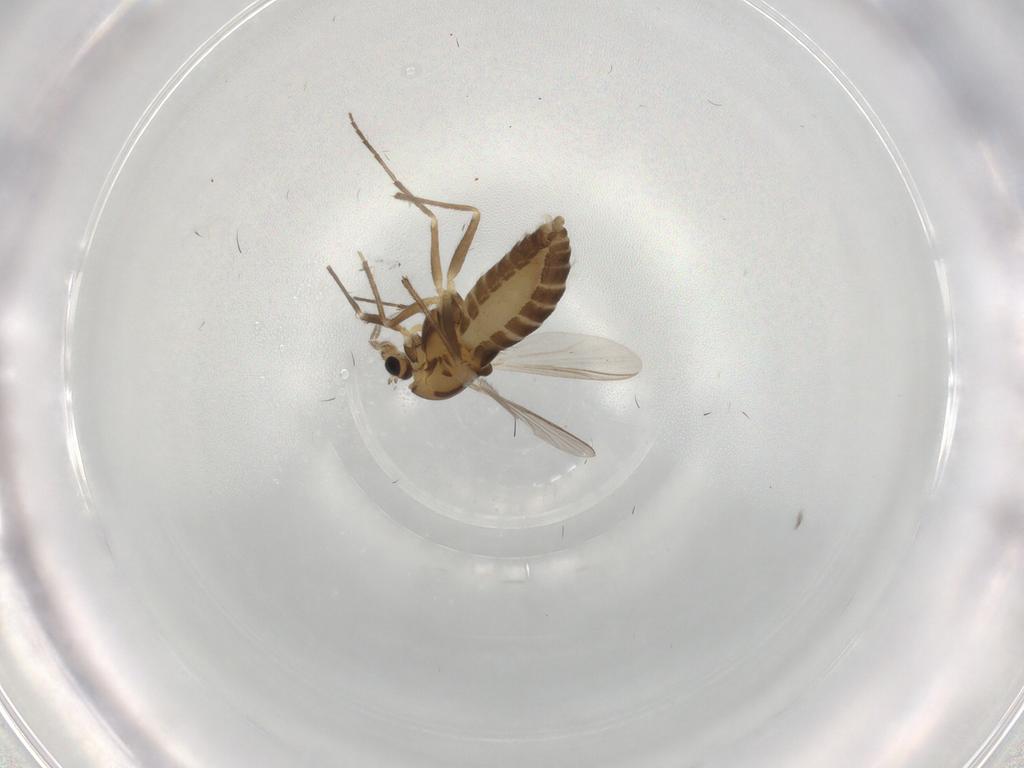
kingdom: Animalia
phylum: Arthropoda
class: Insecta
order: Diptera
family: Chironomidae
